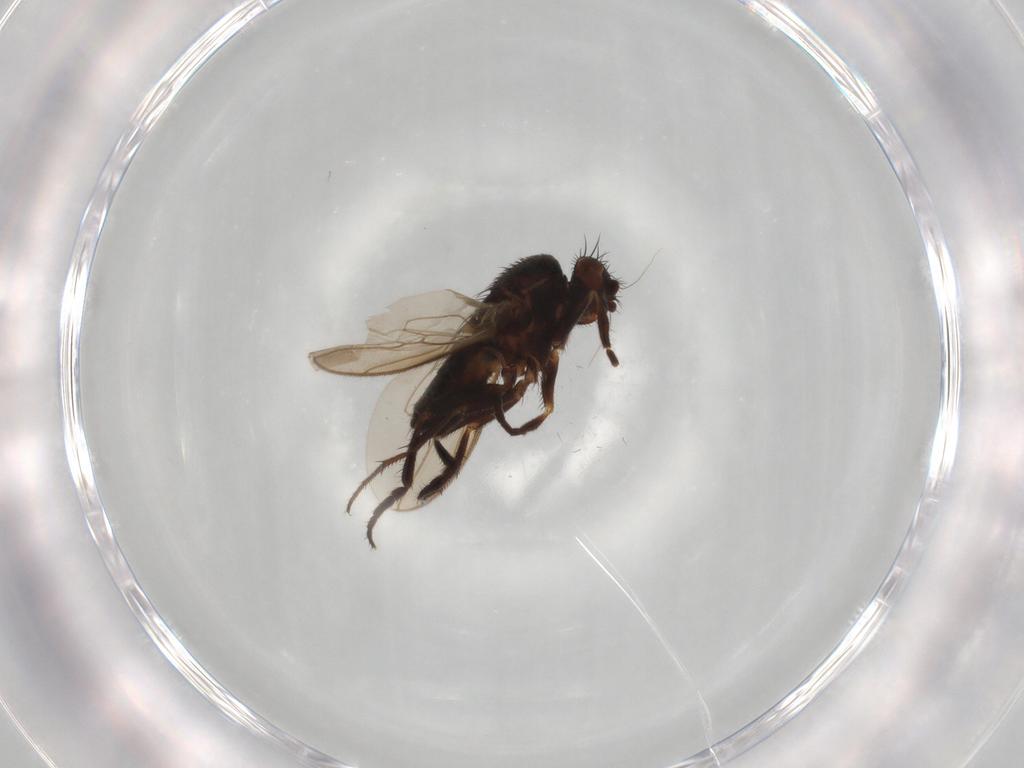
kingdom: Animalia
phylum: Arthropoda
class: Insecta
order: Diptera
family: Sphaeroceridae
